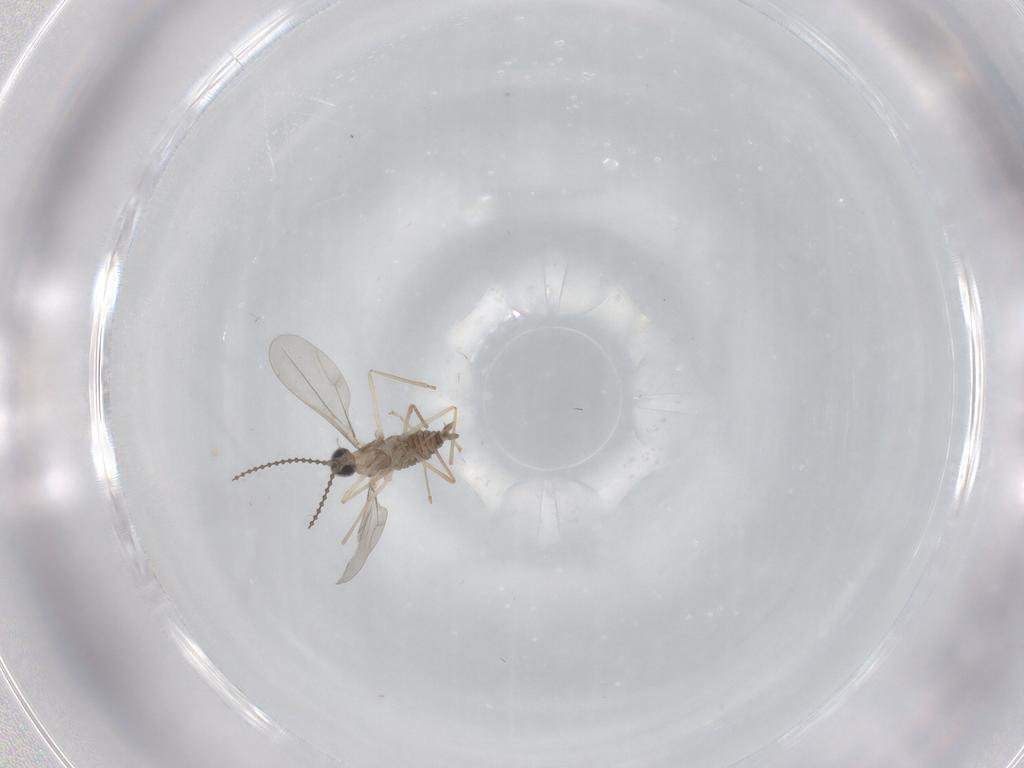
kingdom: Animalia
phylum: Arthropoda
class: Insecta
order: Diptera
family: Cecidomyiidae
